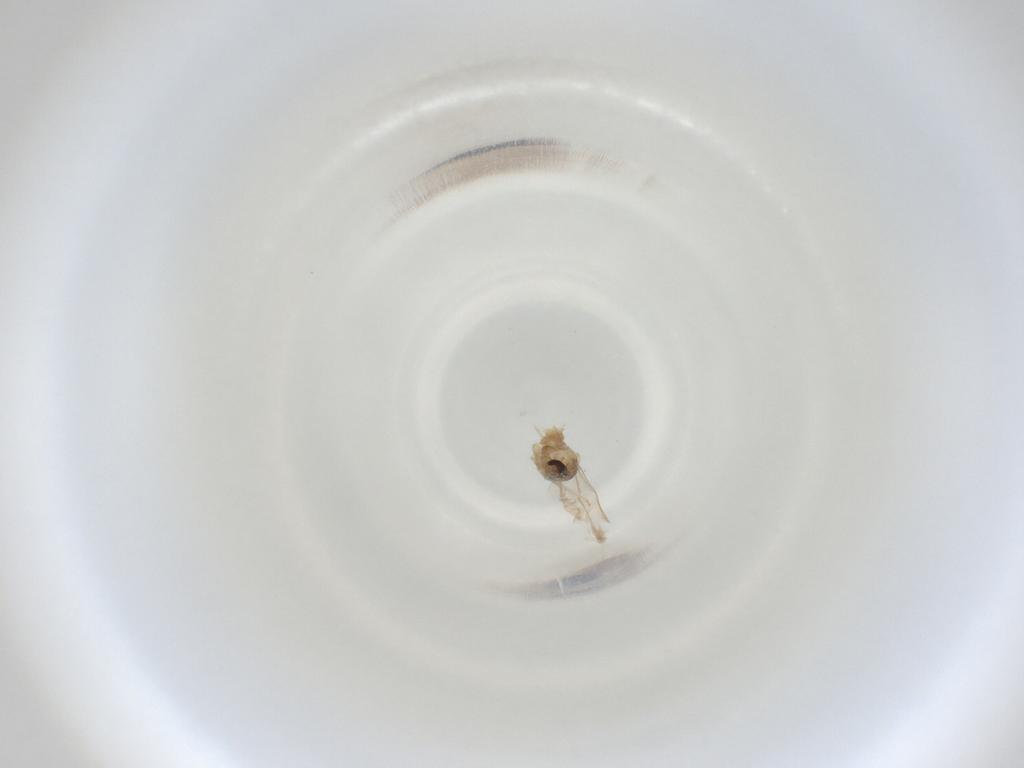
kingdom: Animalia
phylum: Arthropoda
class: Insecta
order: Diptera
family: Cecidomyiidae
